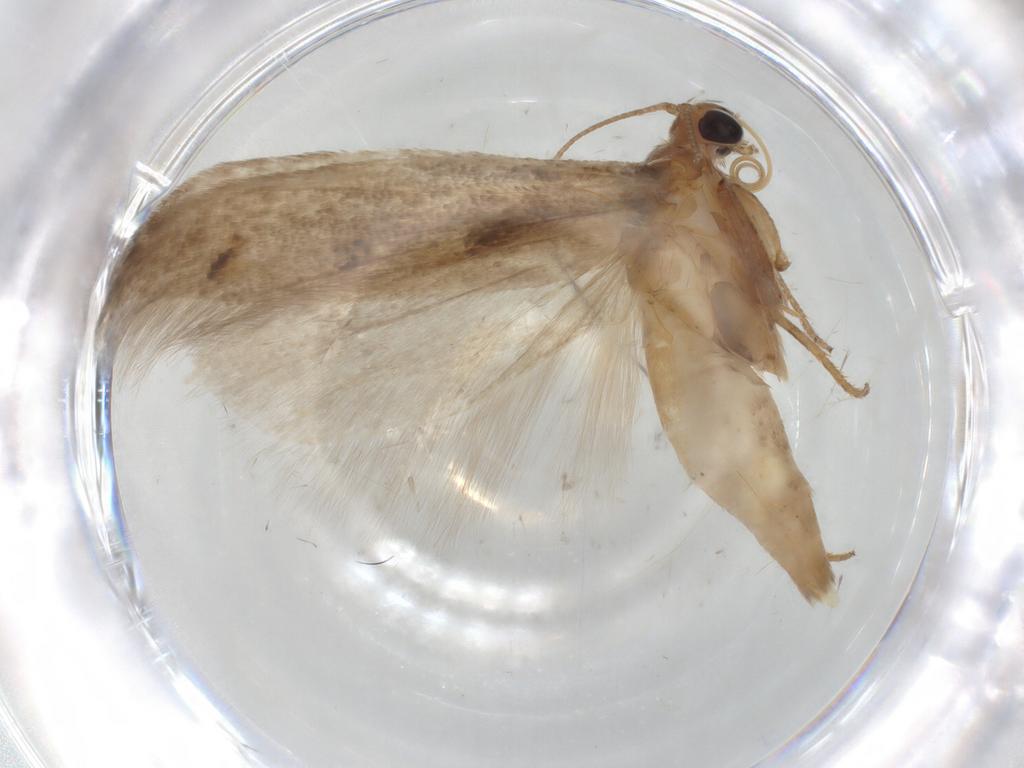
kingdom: Animalia
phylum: Arthropoda
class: Insecta
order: Lepidoptera
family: Gelechiidae
